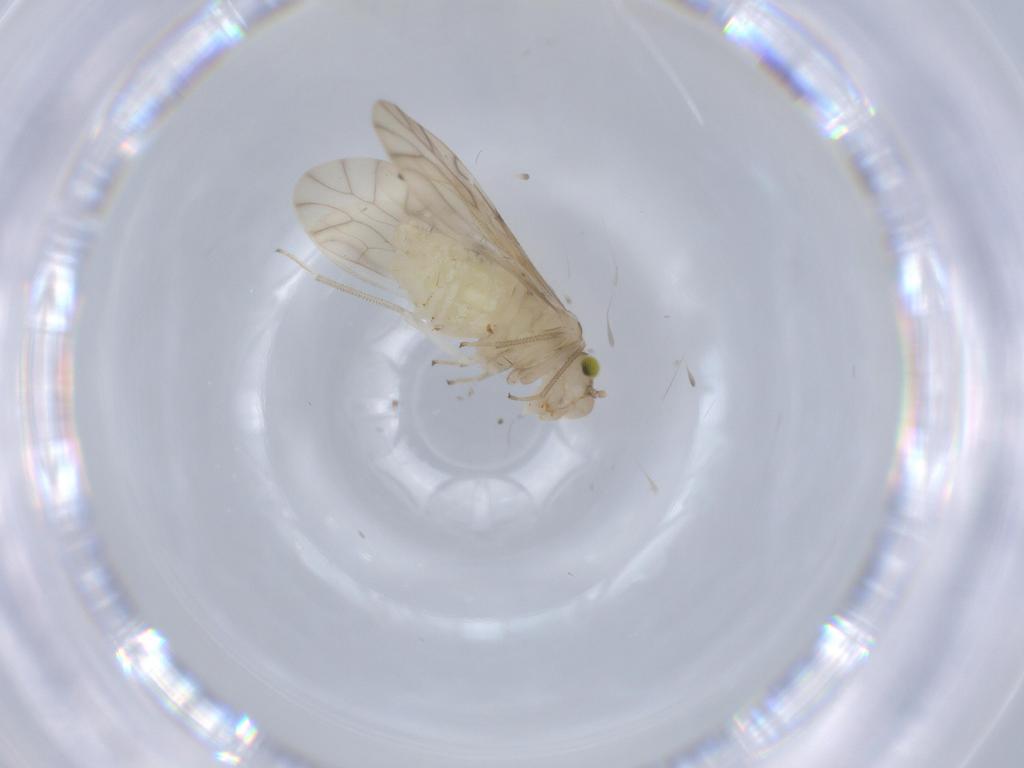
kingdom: Animalia
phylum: Arthropoda
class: Insecta
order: Psocodea
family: Caeciliusidae
